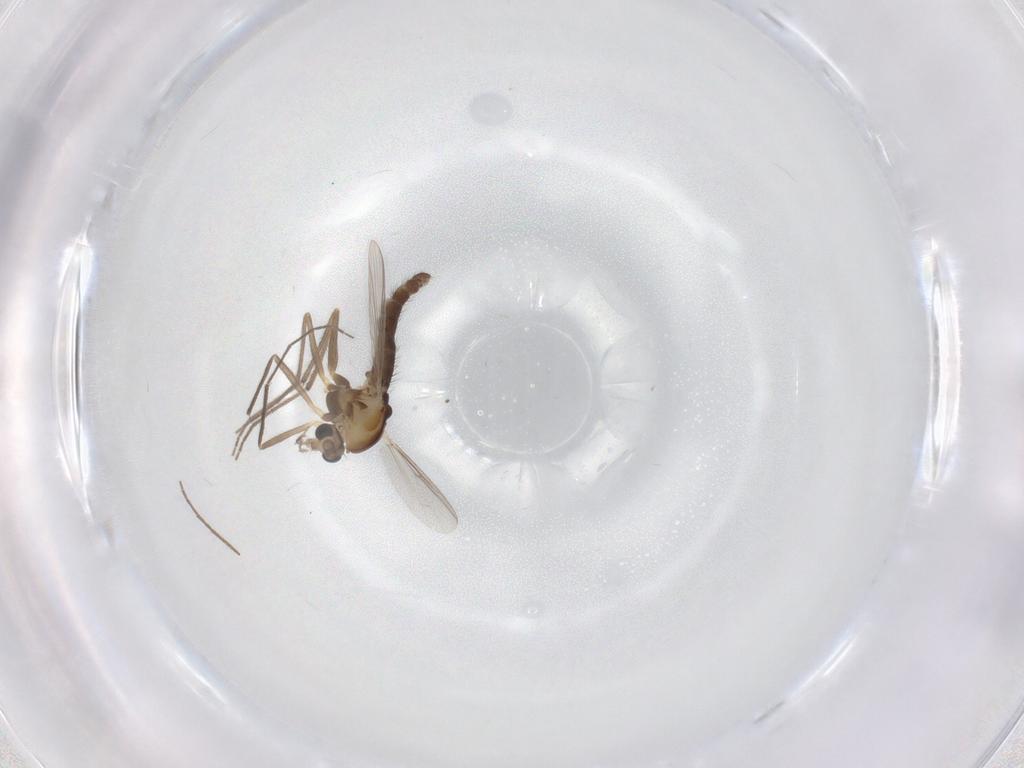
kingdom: Animalia
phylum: Arthropoda
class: Insecta
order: Diptera
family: Chironomidae
